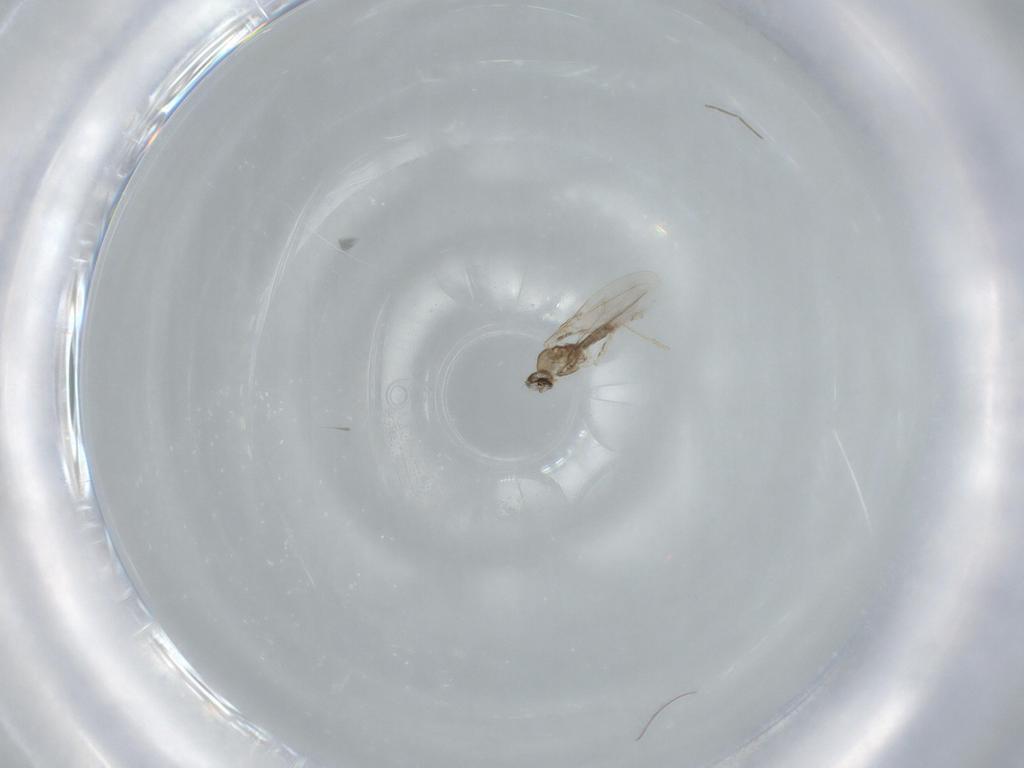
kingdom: Animalia
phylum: Arthropoda
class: Insecta
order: Diptera
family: Cecidomyiidae
